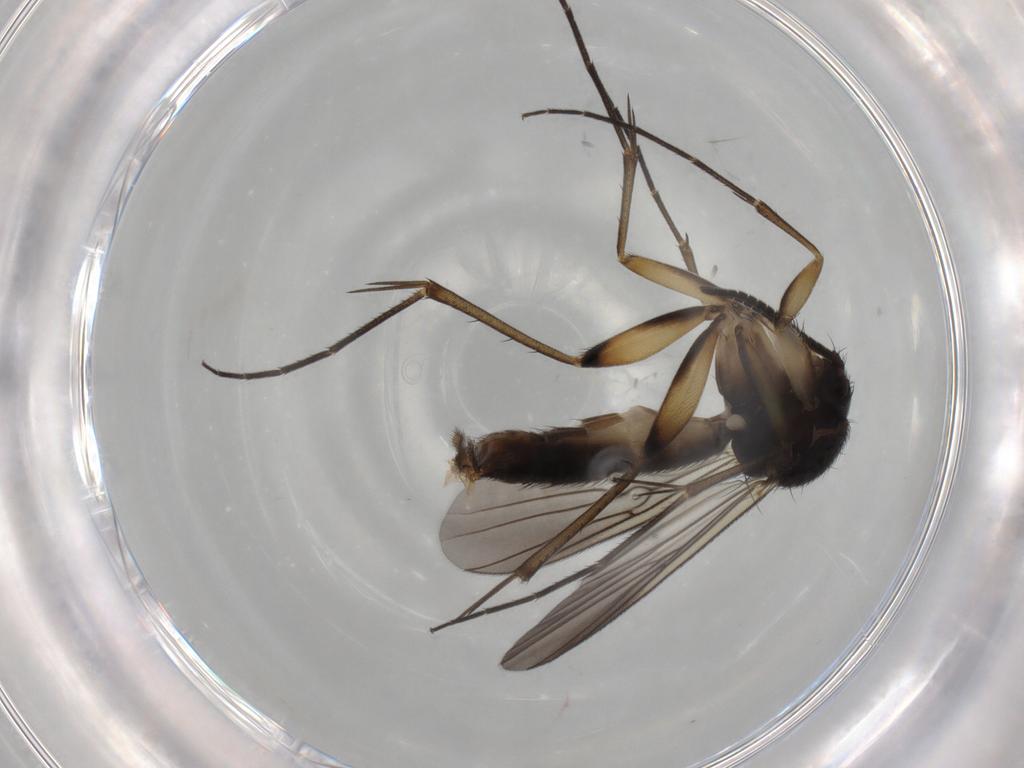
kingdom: Animalia
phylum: Arthropoda
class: Insecta
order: Diptera
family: Mycetophilidae
